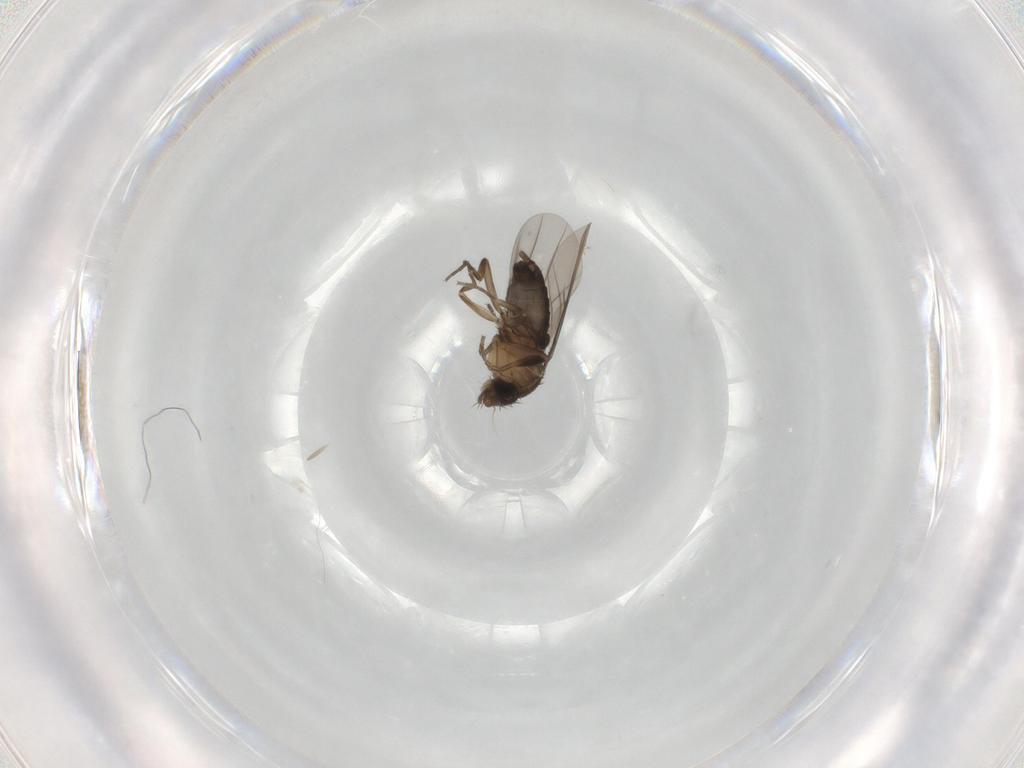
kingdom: Animalia
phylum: Arthropoda
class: Insecta
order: Diptera
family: Phoridae
